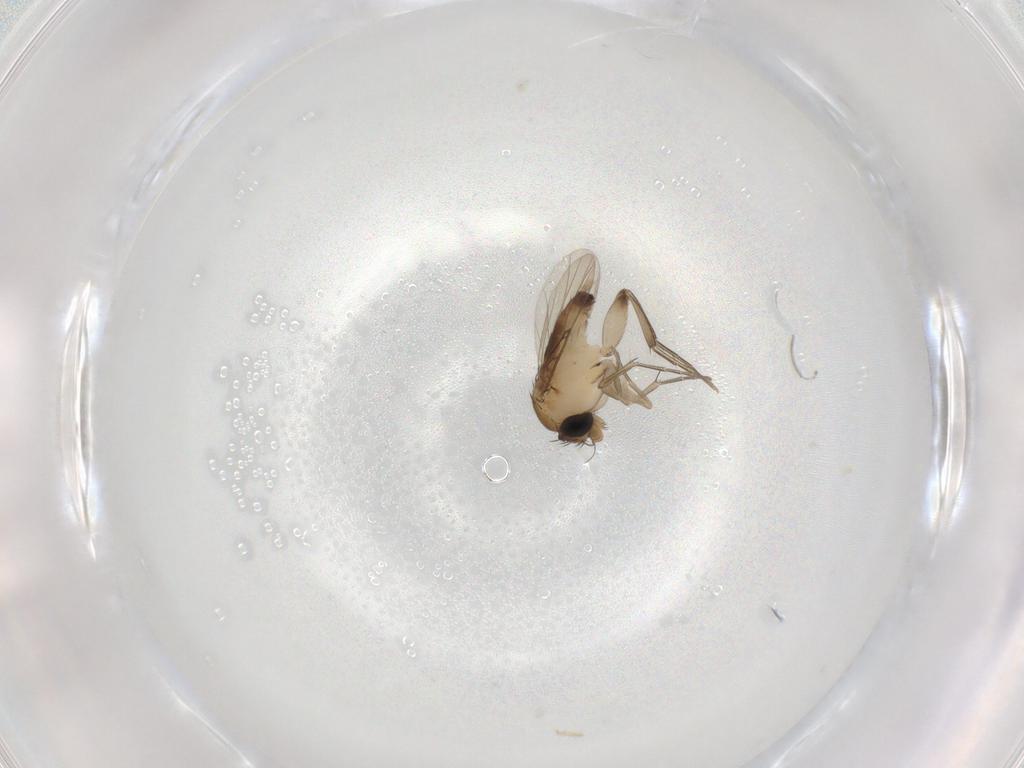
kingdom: Animalia
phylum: Arthropoda
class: Insecta
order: Diptera
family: Phoridae
